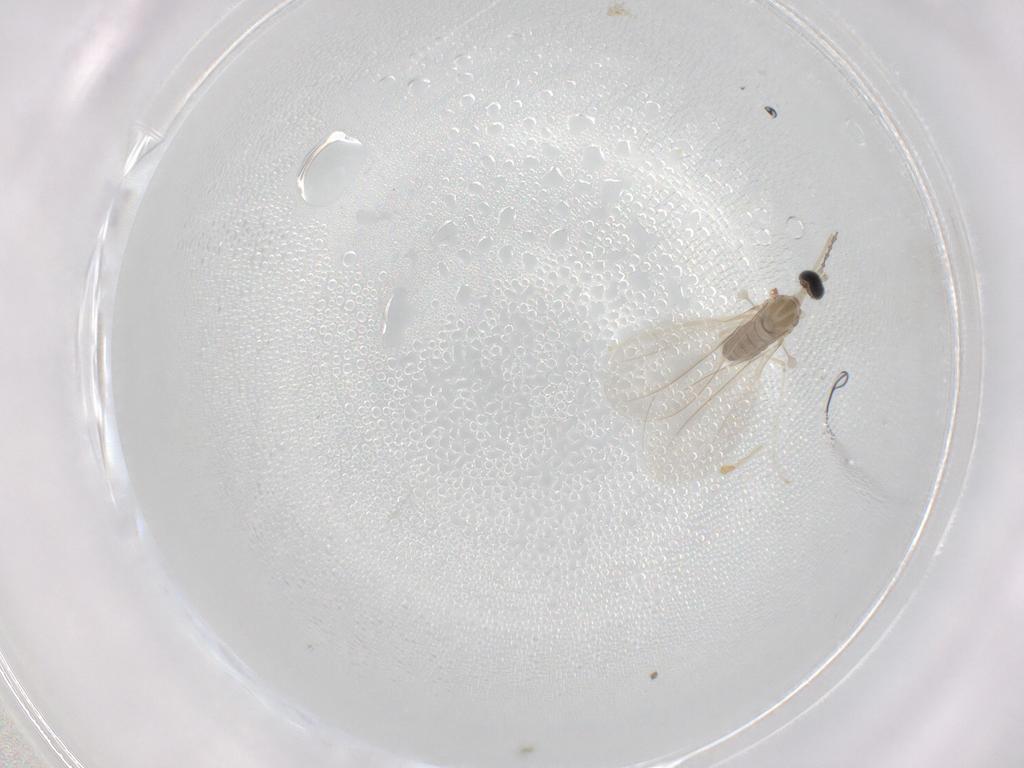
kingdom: Animalia
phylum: Arthropoda
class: Insecta
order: Diptera
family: Cecidomyiidae
